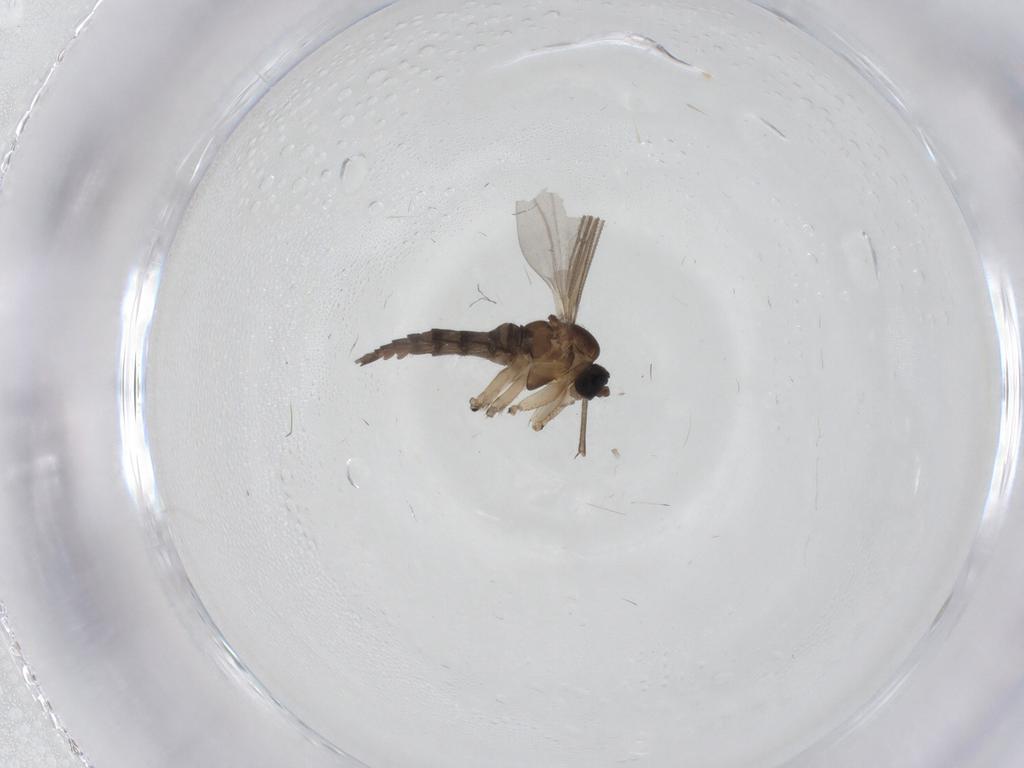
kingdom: Animalia
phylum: Arthropoda
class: Insecta
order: Diptera
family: Sciaridae
